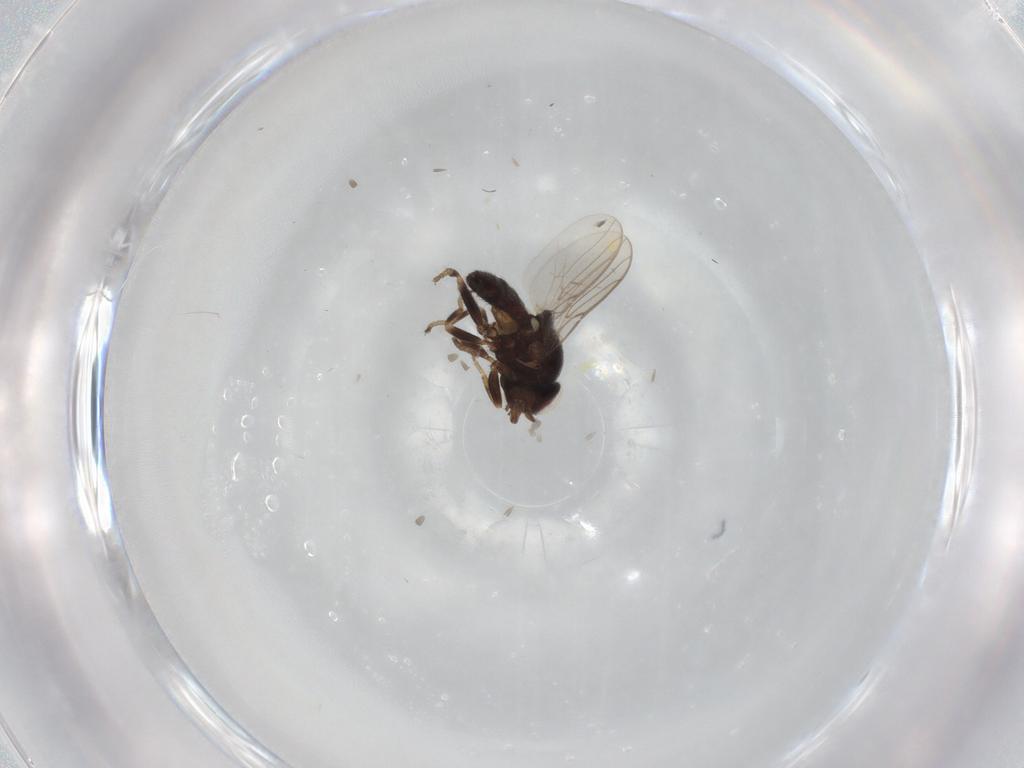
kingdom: Animalia
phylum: Arthropoda
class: Insecta
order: Diptera
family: Chloropidae
